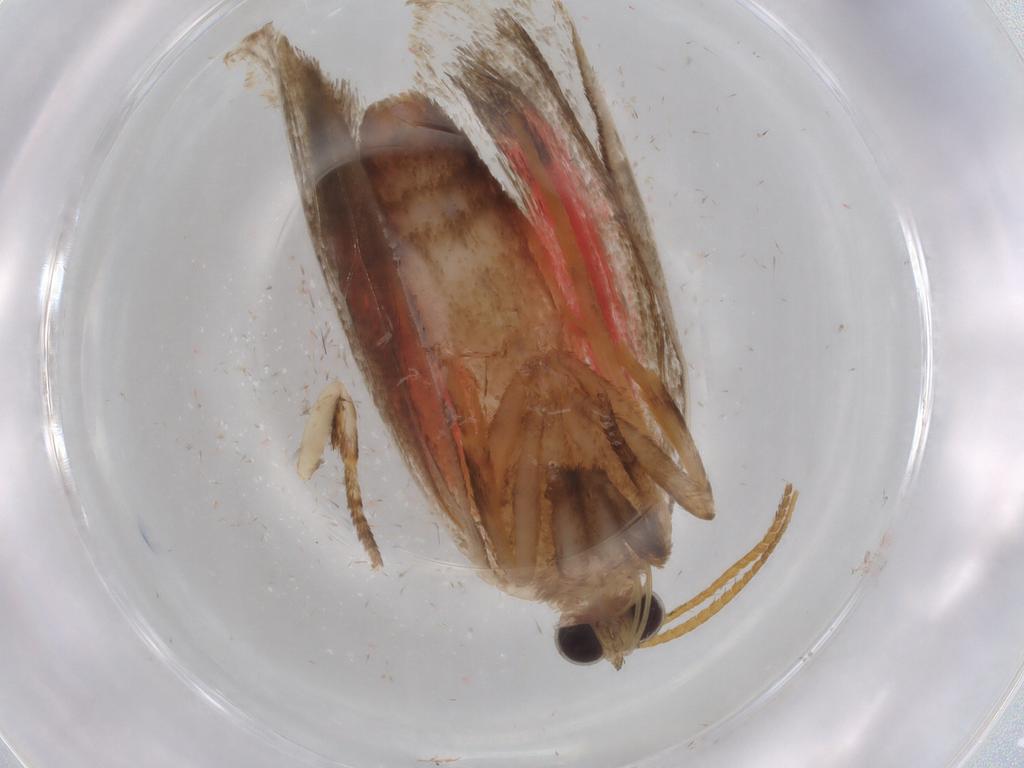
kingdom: Animalia
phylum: Arthropoda
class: Insecta
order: Lepidoptera
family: Erebidae
